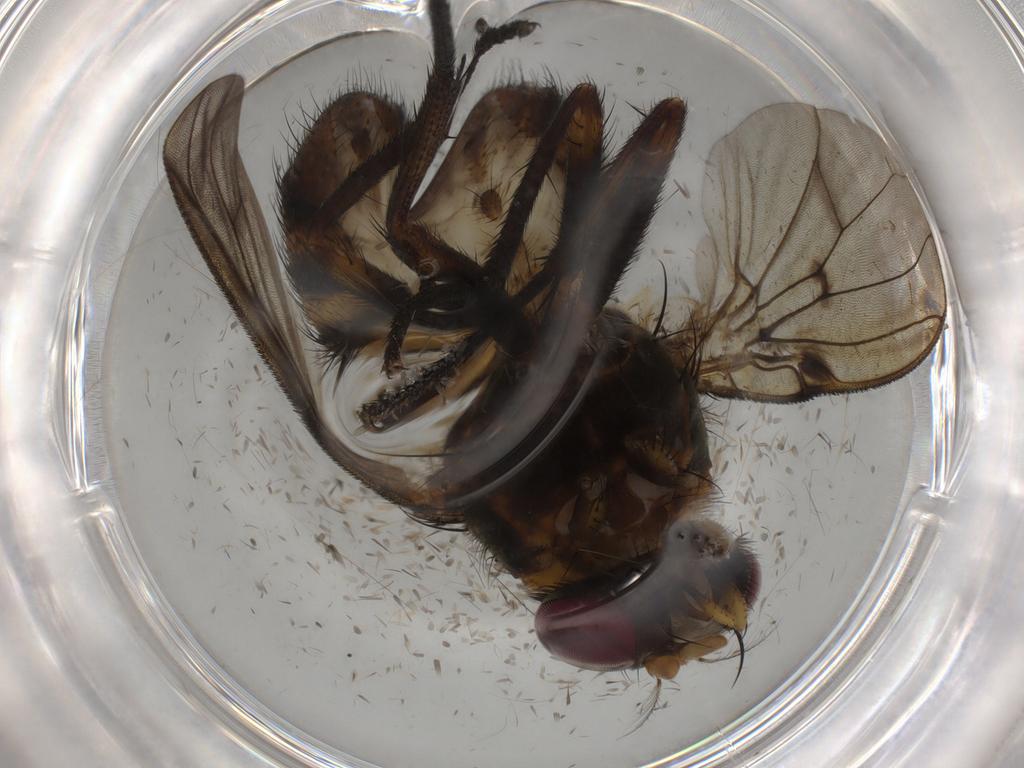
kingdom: Animalia
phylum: Arthropoda
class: Insecta
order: Diptera
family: Muscidae
